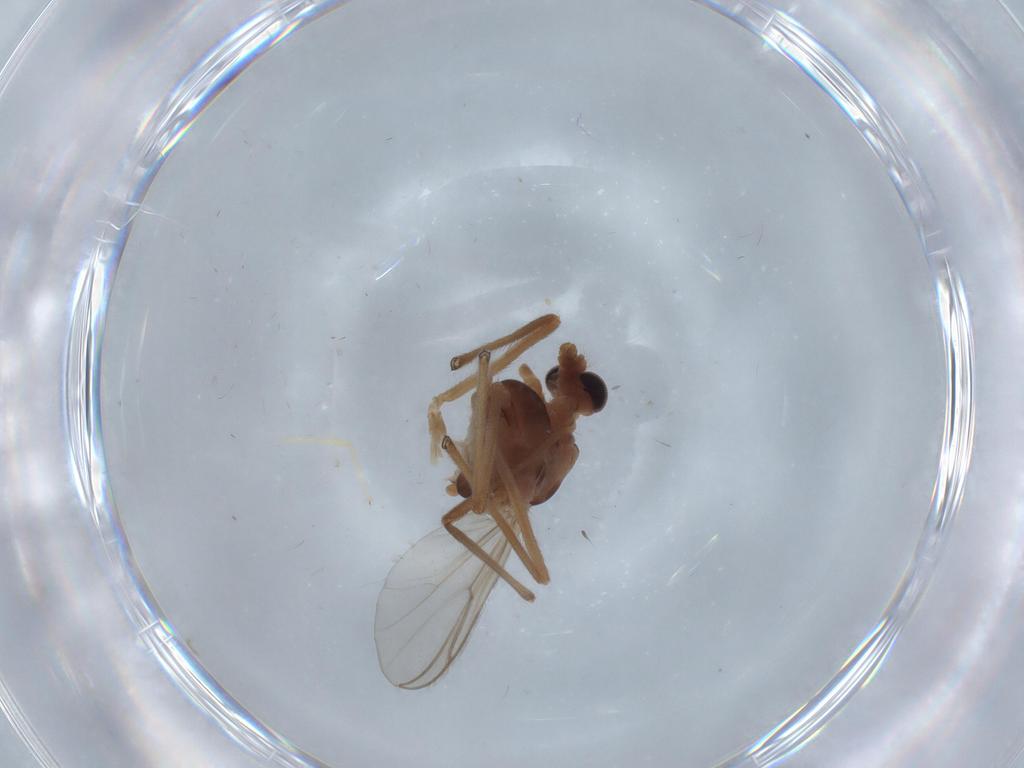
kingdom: Animalia
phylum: Arthropoda
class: Insecta
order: Diptera
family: Chironomidae
